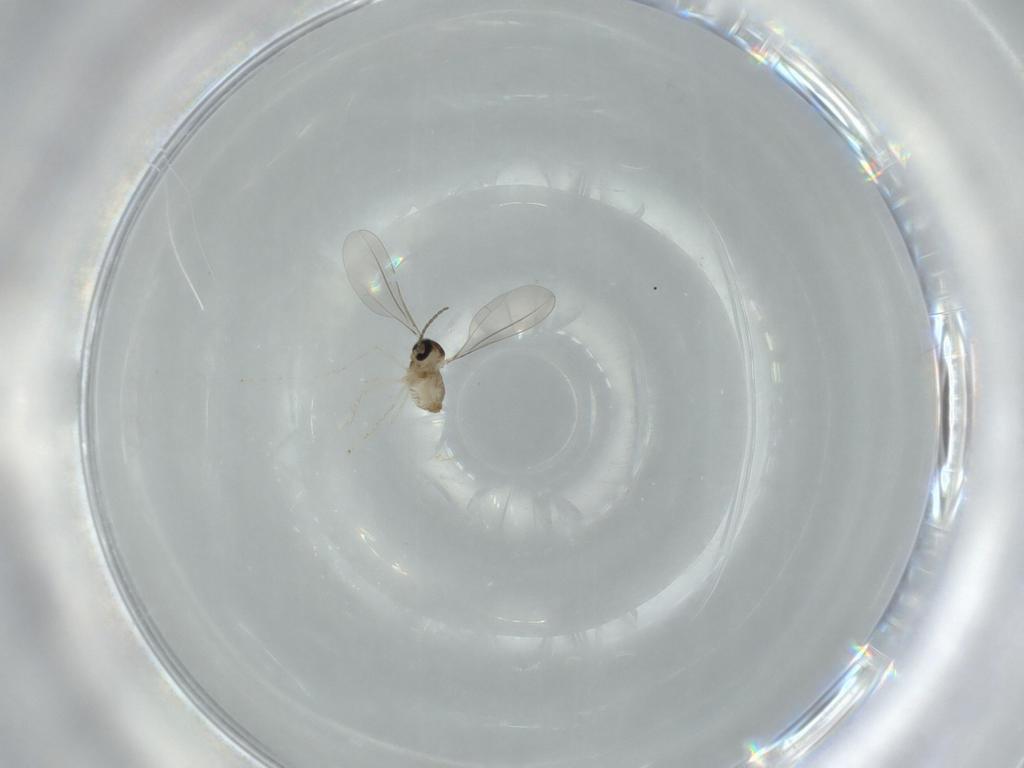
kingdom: Animalia
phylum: Arthropoda
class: Insecta
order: Diptera
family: Cecidomyiidae
